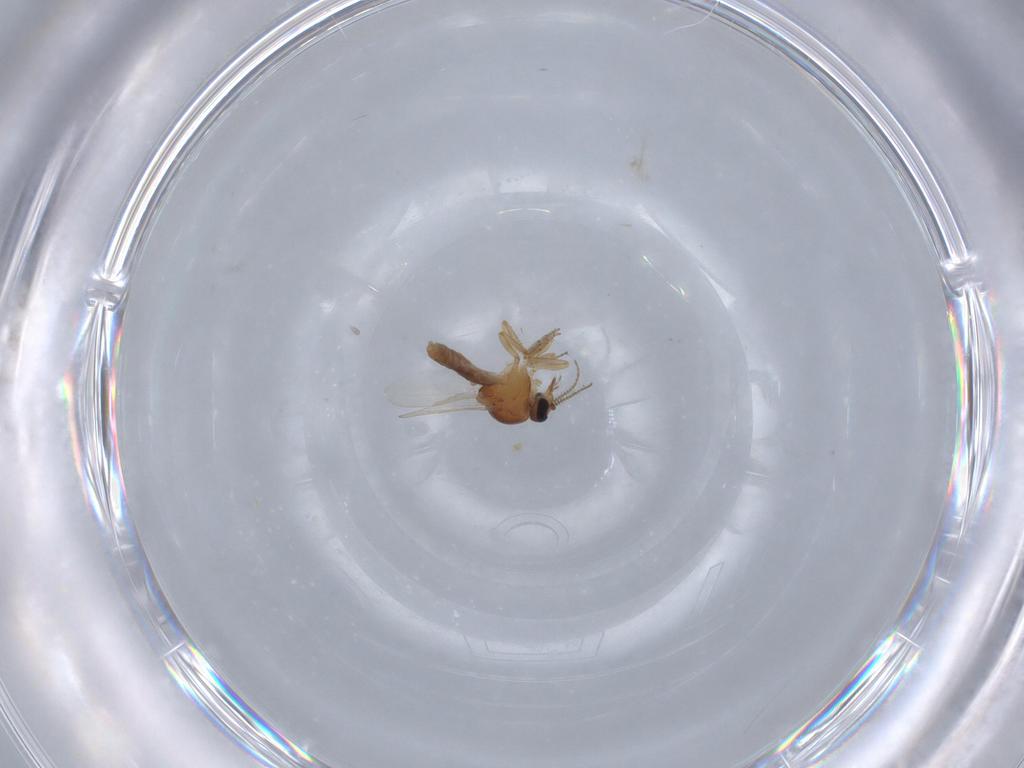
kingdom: Animalia
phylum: Arthropoda
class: Insecta
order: Diptera
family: Ceratopogonidae
